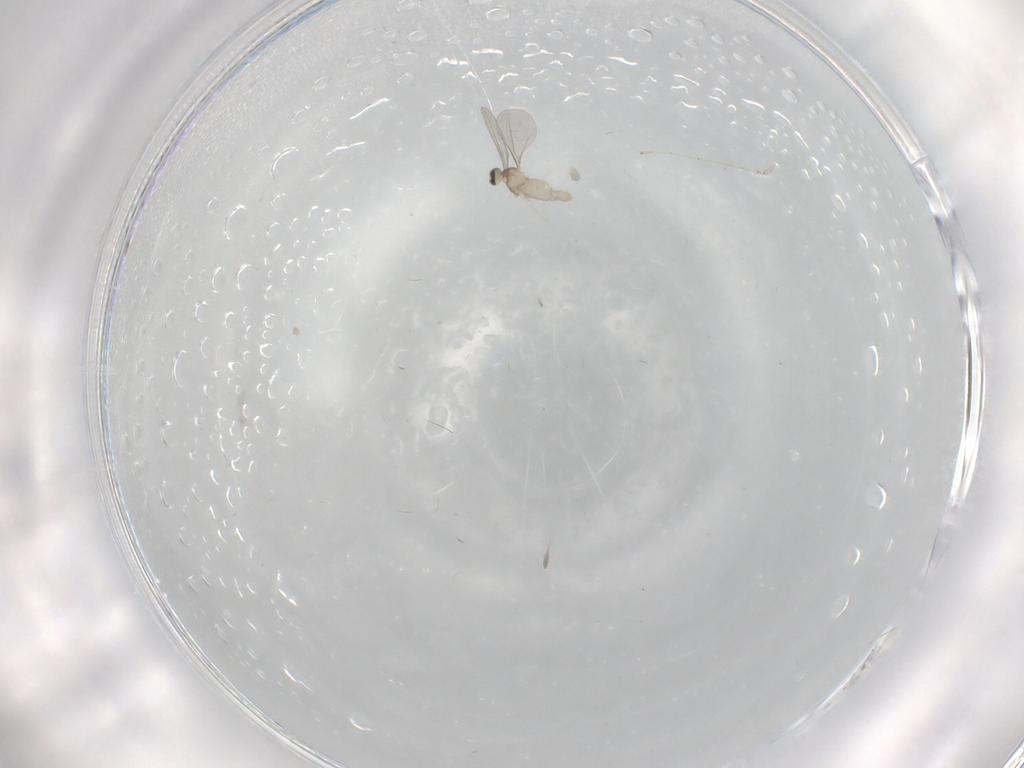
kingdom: Animalia
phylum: Arthropoda
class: Insecta
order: Diptera
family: Cecidomyiidae
